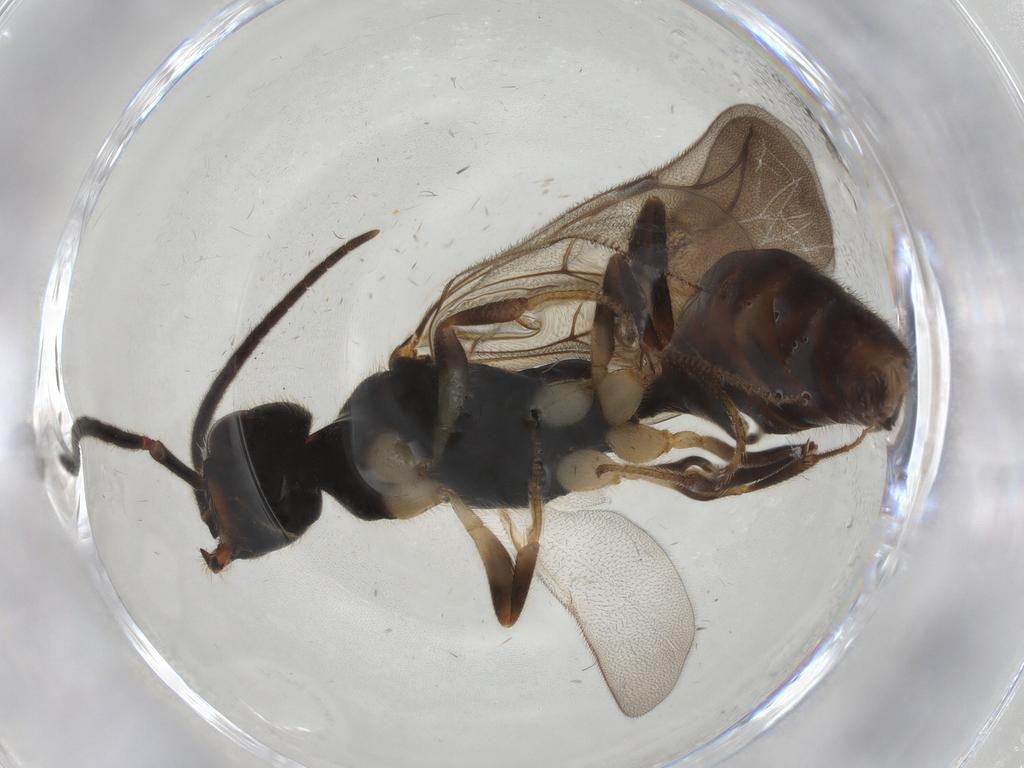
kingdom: Animalia
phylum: Arthropoda
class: Insecta
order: Hymenoptera
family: Bethylidae
